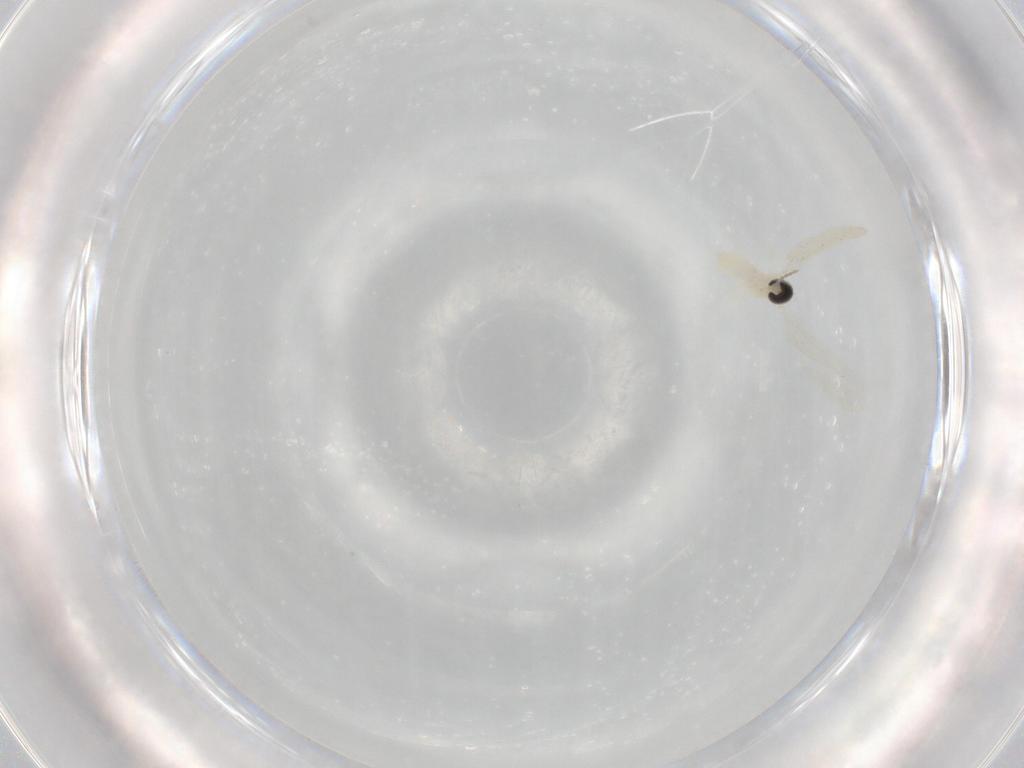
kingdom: Animalia
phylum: Arthropoda
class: Insecta
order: Diptera
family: Cecidomyiidae
